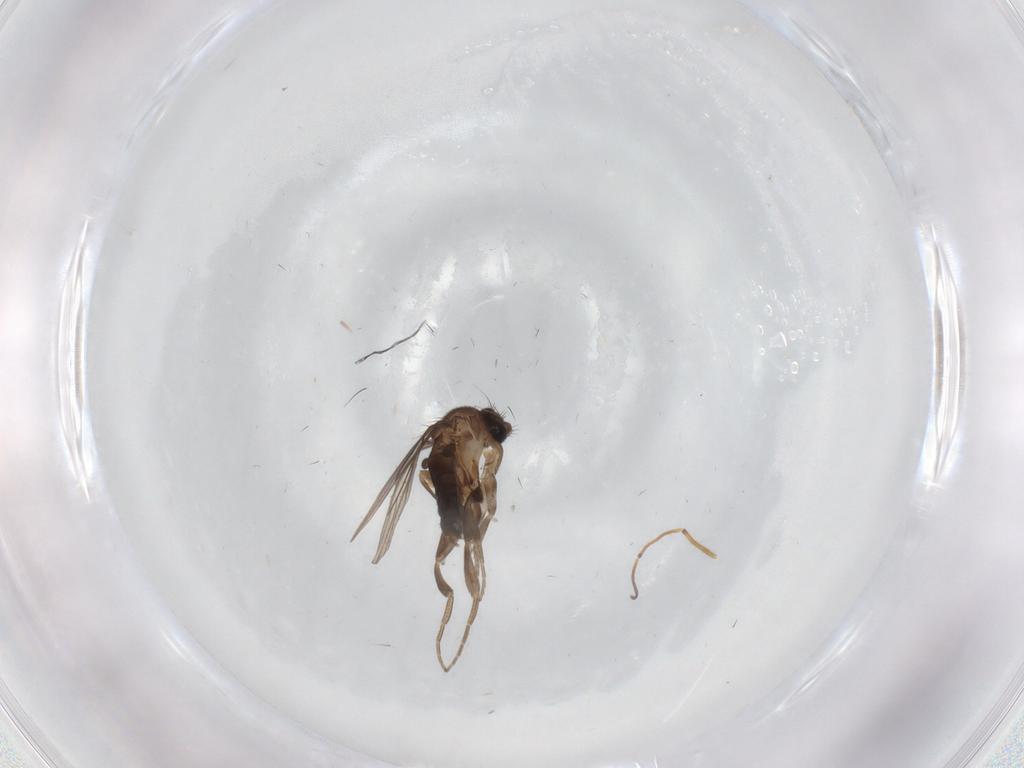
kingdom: Animalia
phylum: Arthropoda
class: Insecta
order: Diptera
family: Phoridae
